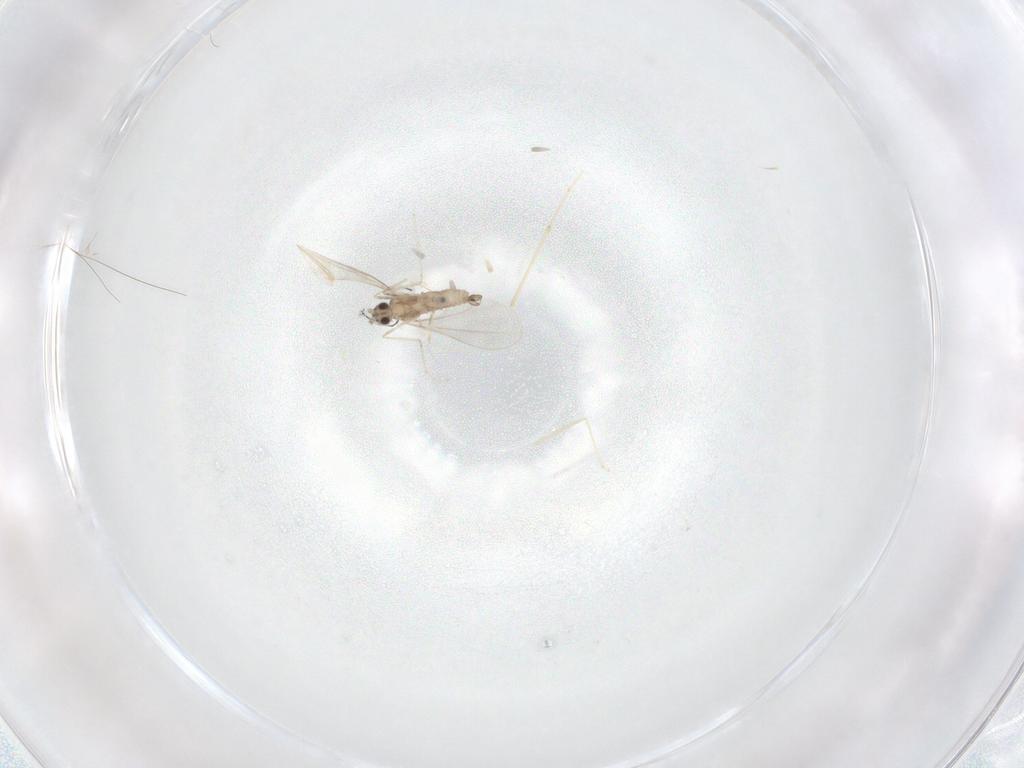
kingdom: Animalia
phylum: Arthropoda
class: Insecta
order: Diptera
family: Cecidomyiidae
